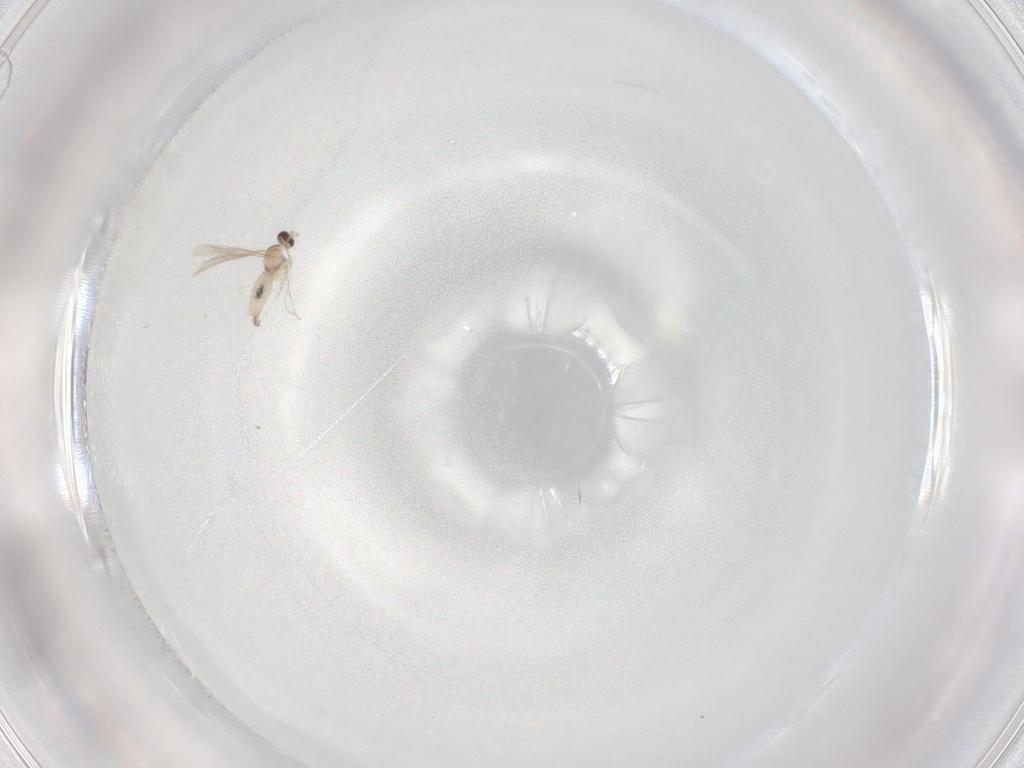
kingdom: Animalia
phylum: Arthropoda
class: Insecta
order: Diptera
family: Cecidomyiidae
